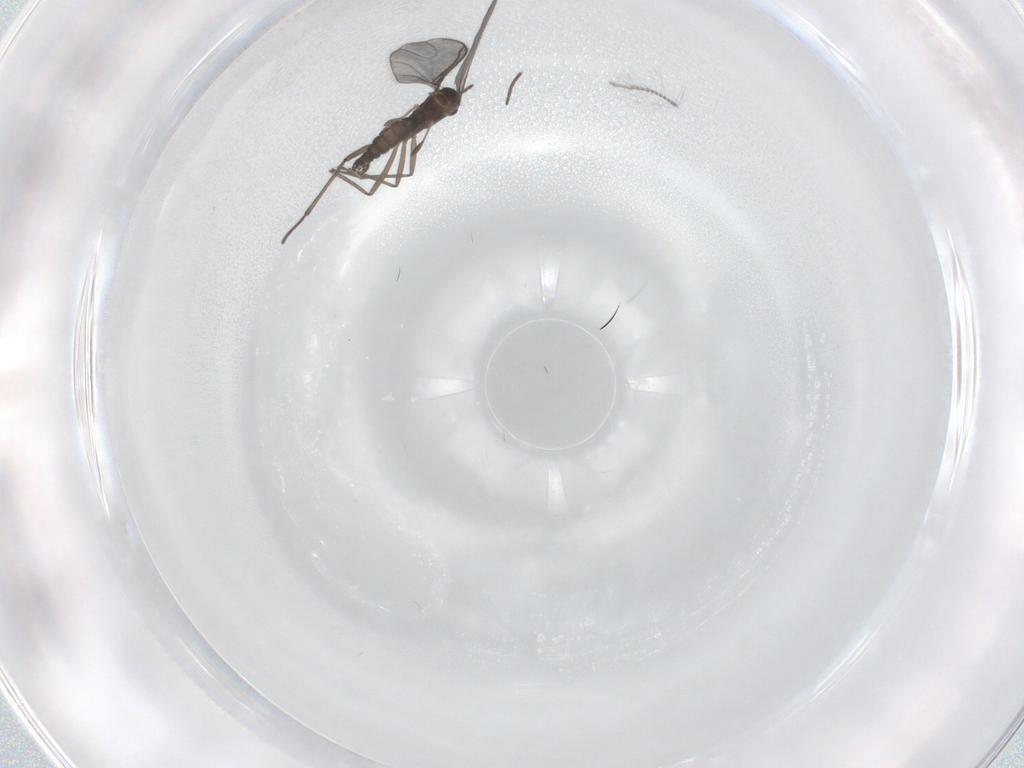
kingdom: Animalia
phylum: Arthropoda
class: Insecta
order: Diptera
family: Sciaridae
